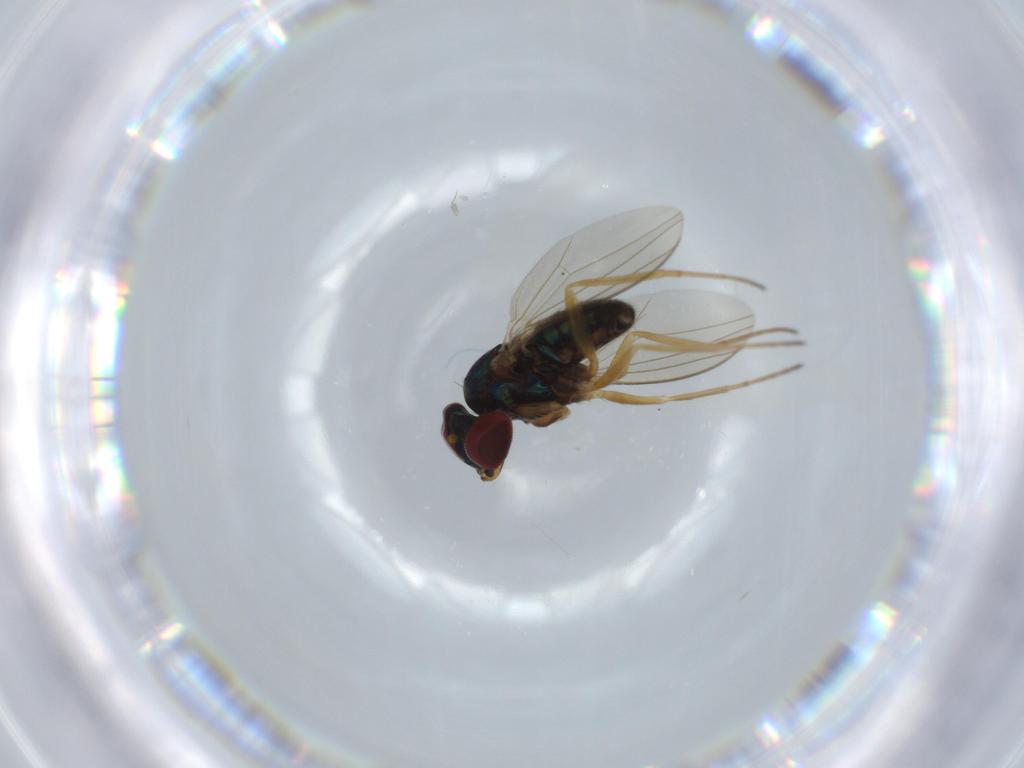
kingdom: Animalia
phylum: Arthropoda
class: Insecta
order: Diptera
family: Dolichopodidae
